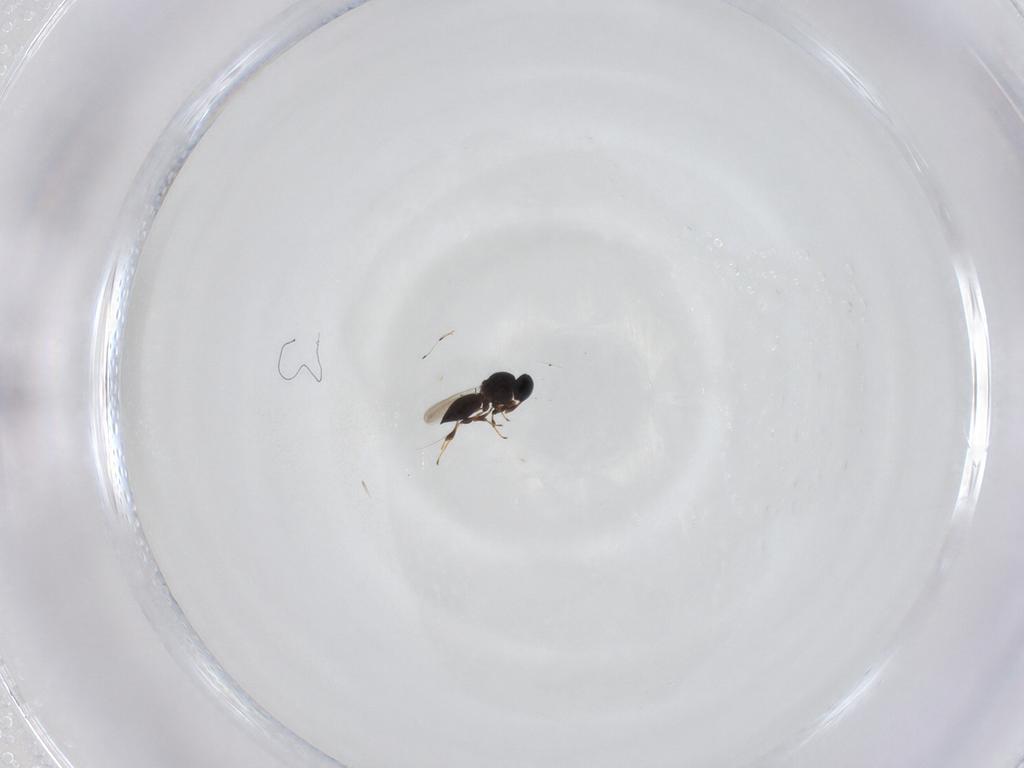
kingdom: Animalia
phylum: Arthropoda
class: Insecta
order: Hymenoptera
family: Platygastridae
